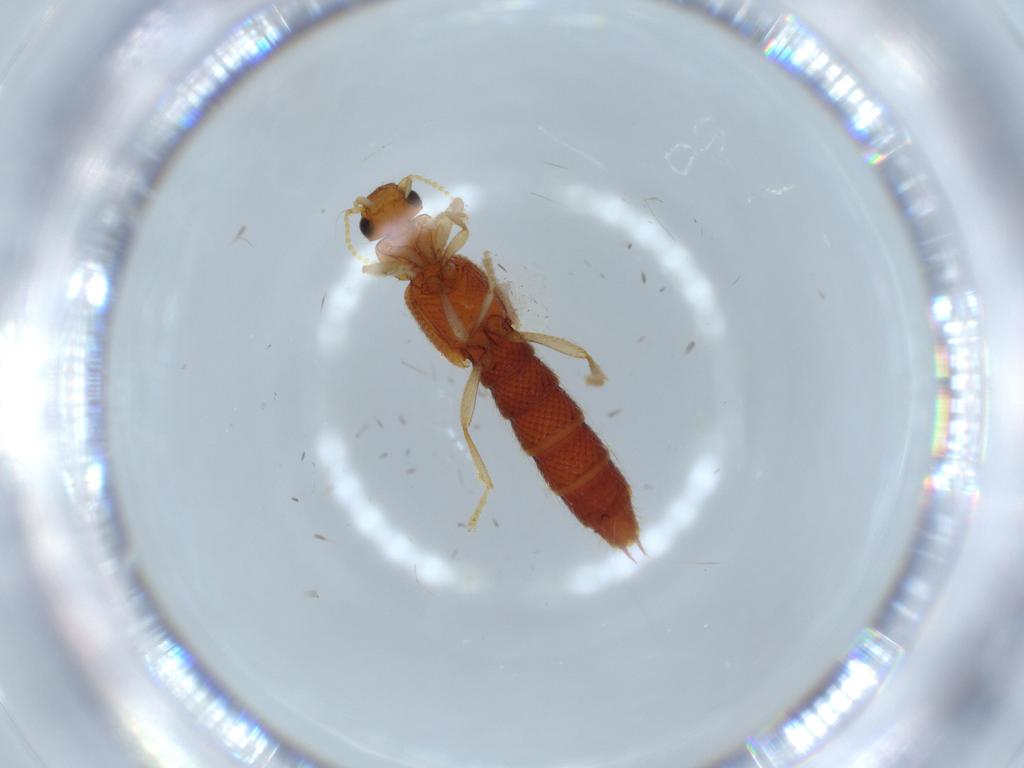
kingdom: Animalia
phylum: Arthropoda
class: Insecta
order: Coleoptera
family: Staphylinidae
